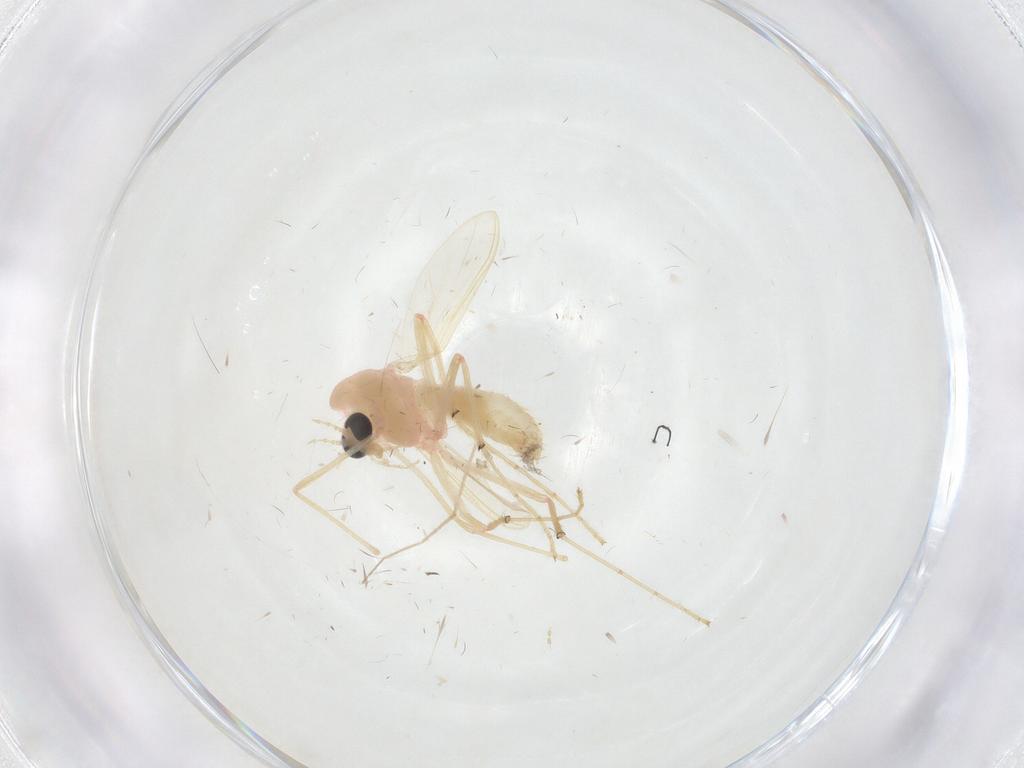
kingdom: Animalia
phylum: Arthropoda
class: Insecta
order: Diptera
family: Chironomidae
